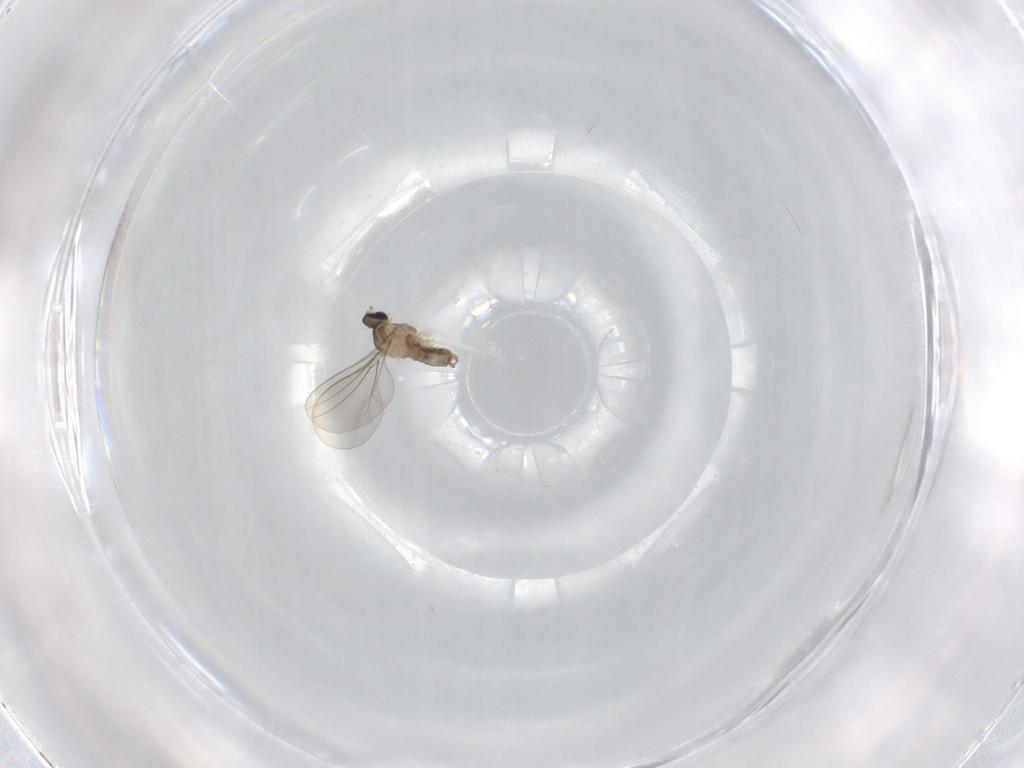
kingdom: Animalia
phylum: Arthropoda
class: Insecta
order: Diptera
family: Cecidomyiidae
